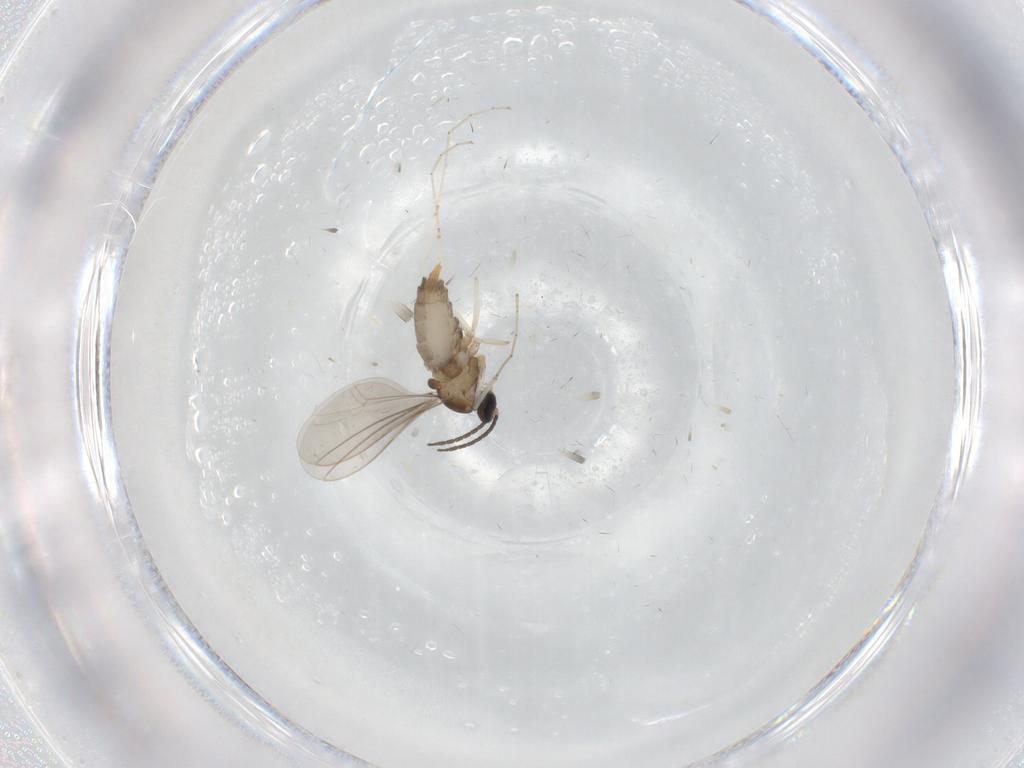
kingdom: Animalia
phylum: Arthropoda
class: Insecta
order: Diptera
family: Cecidomyiidae
